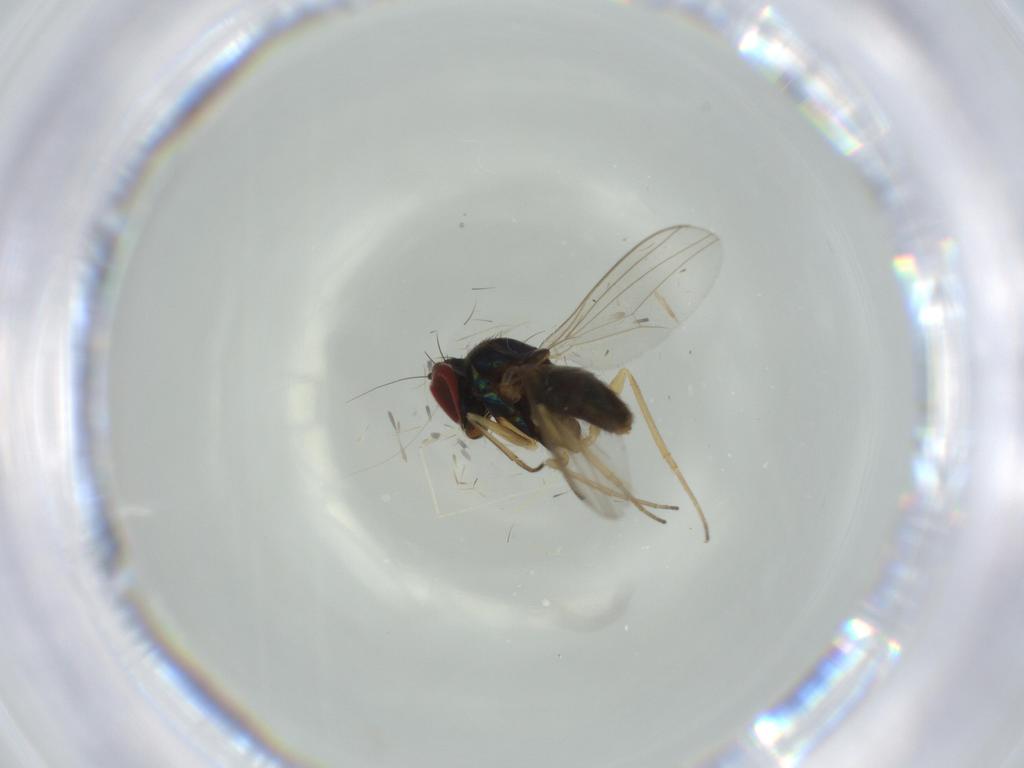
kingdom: Animalia
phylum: Arthropoda
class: Insecta
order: Diptera
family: Dolichopodidae
